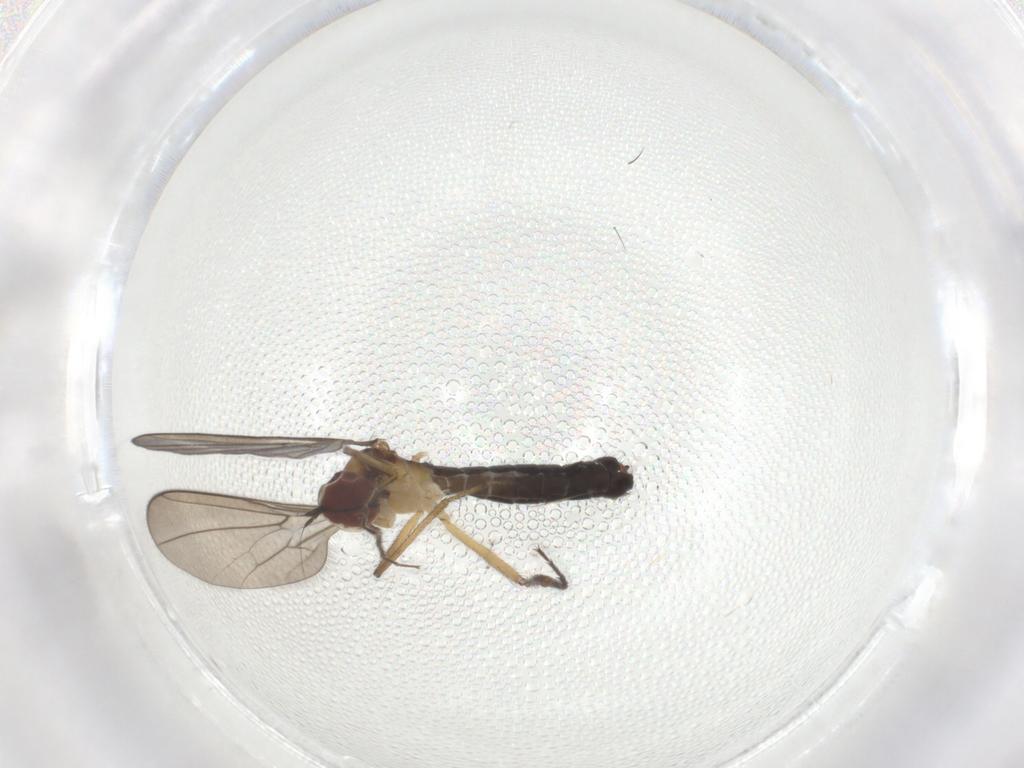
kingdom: Animalia
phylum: Arthropoda
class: Insecta
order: Diptera
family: Hybotidae
